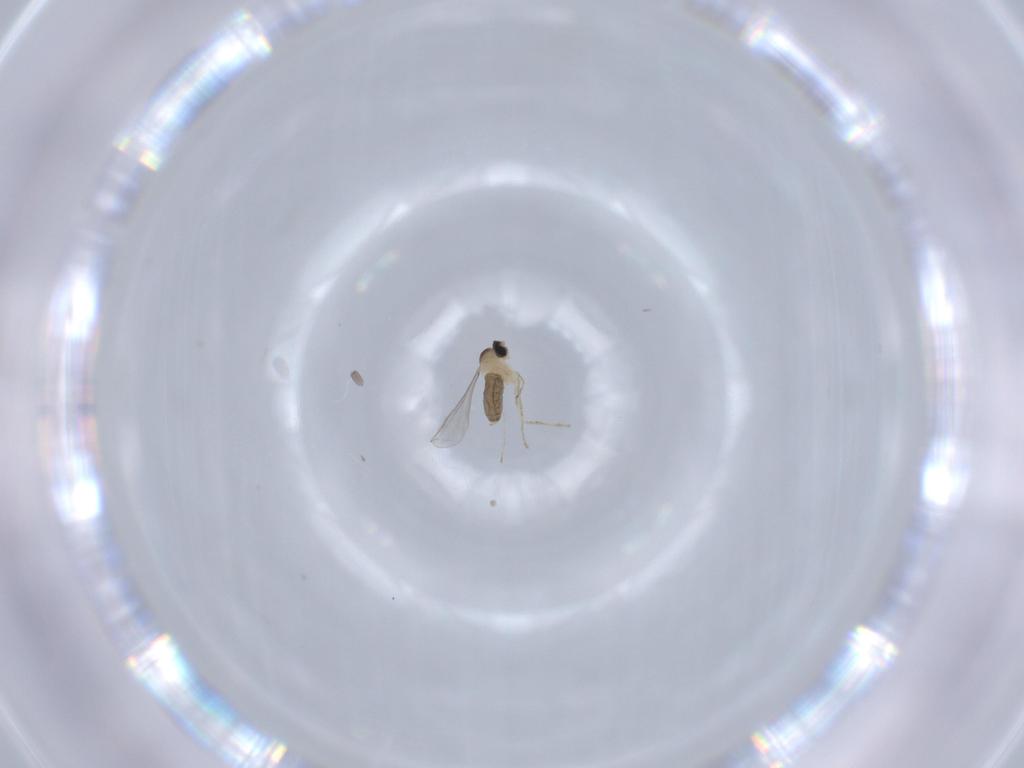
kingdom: Animalia
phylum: Arthropoda
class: Insecta
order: Diptera
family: Cecidomyiidae
